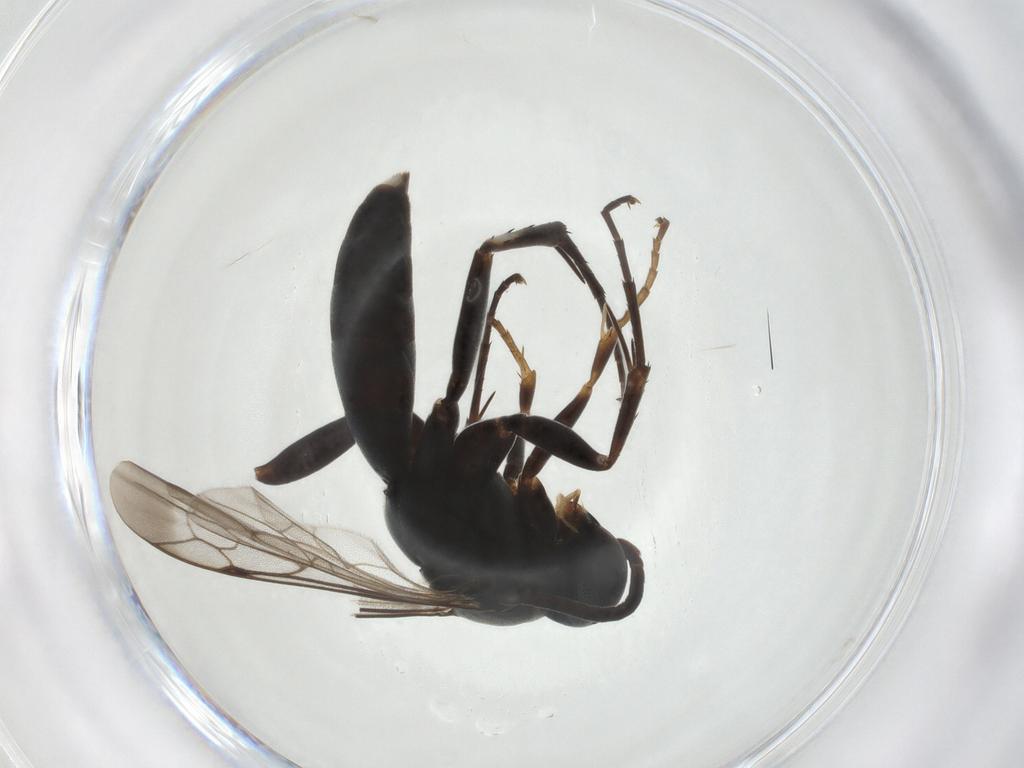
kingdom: Animalia
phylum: Arthropoda
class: Insecta
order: Hymenoptera
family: Pompilidae
